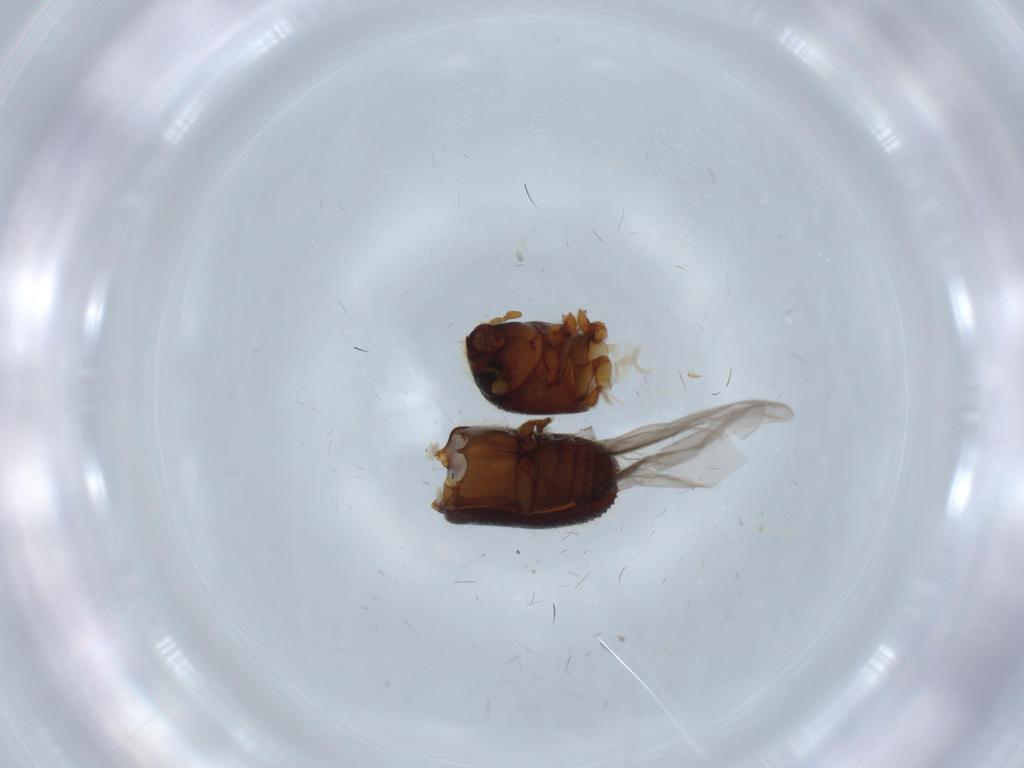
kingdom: Animalia
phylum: Arthropoda
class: Insecta
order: Coleoptera
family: Curculionidae
